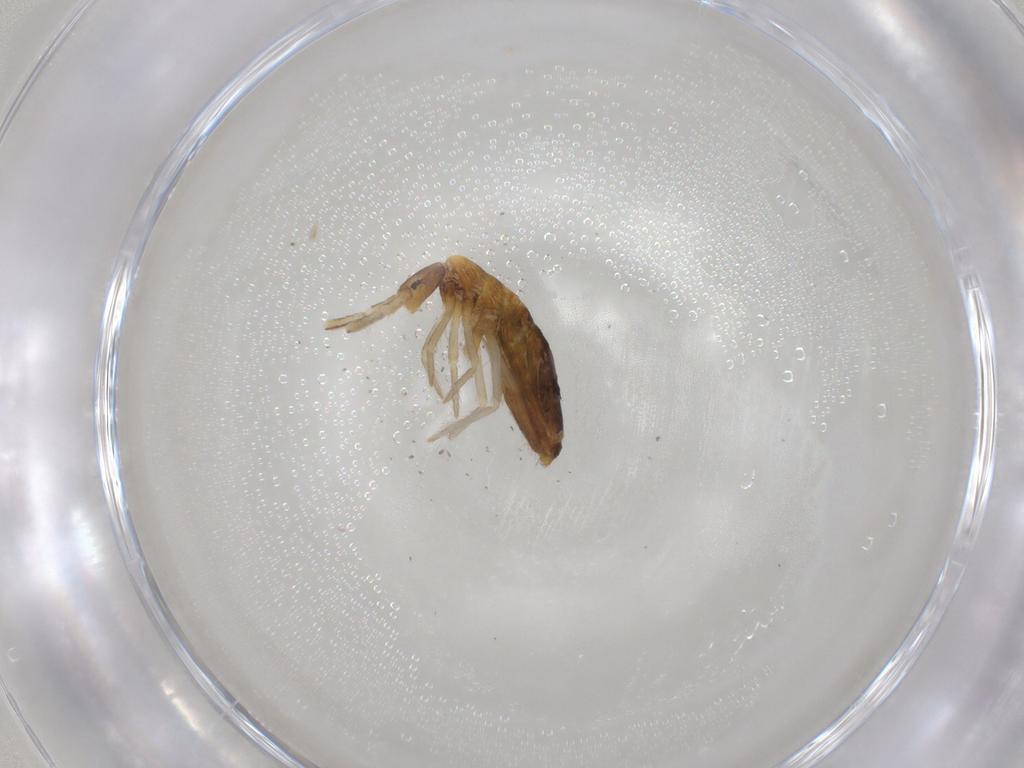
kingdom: Animalia
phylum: Arthropoda
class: Collembola
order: Entomobryomorpha
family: Entomobryidae
